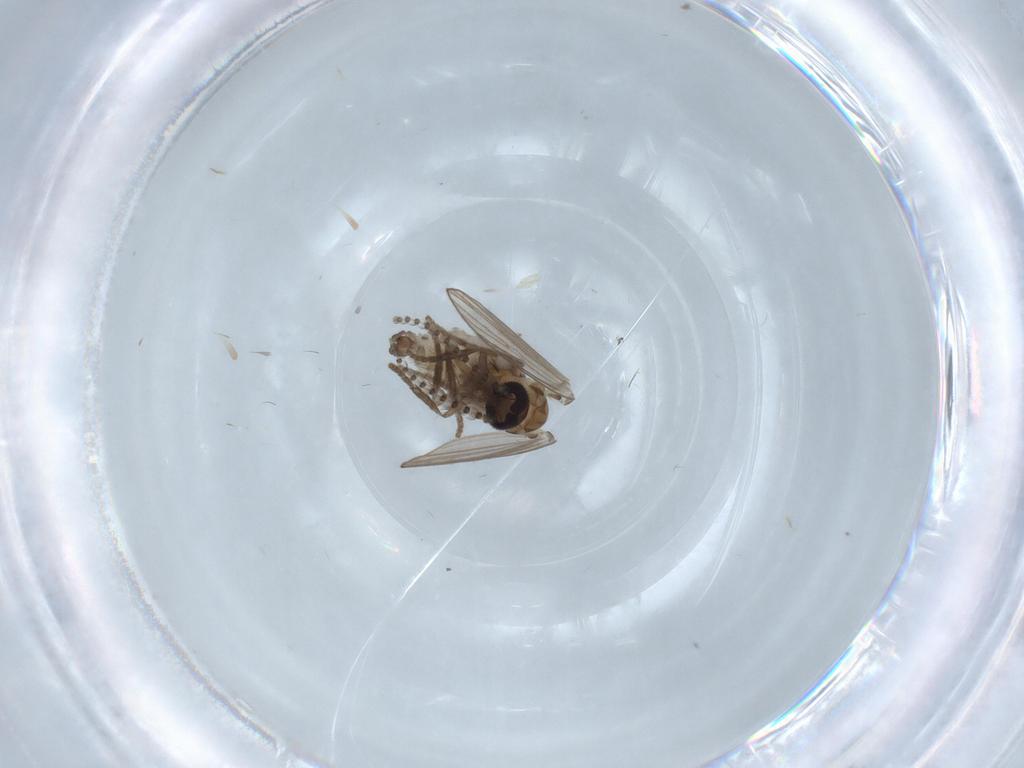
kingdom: Animalia
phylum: Arthropoda
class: Insecta
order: Diptera
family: Psychodidae
